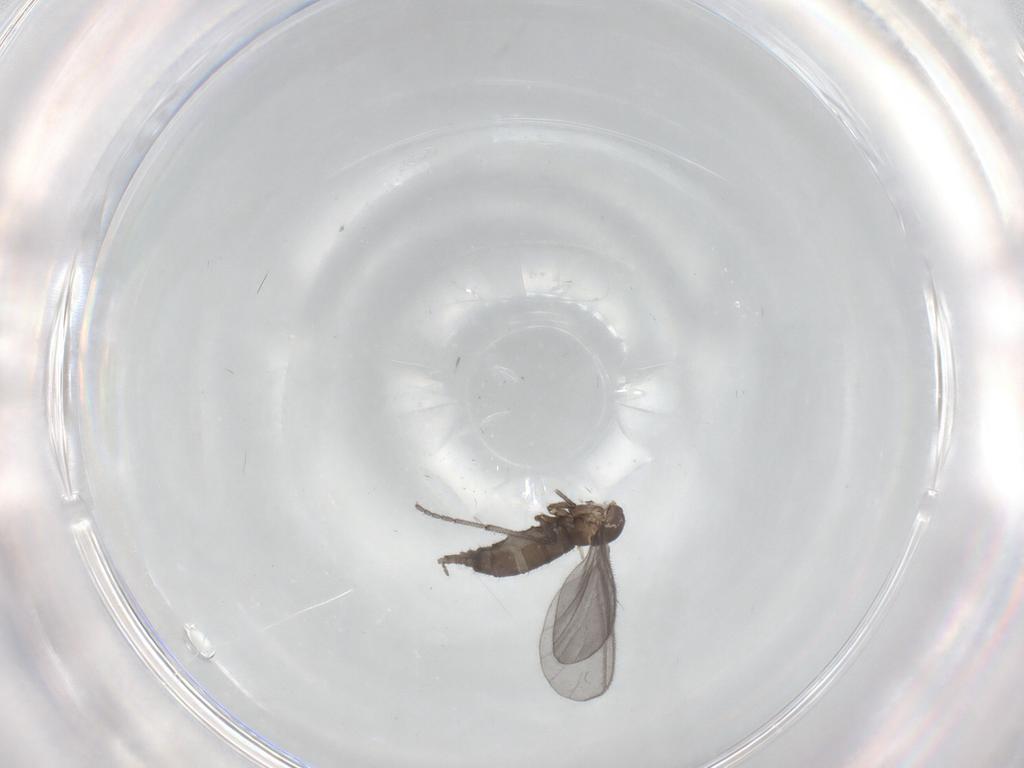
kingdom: Animalia
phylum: Arthropoda
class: Insecta
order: Diptera
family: Sciaridae
